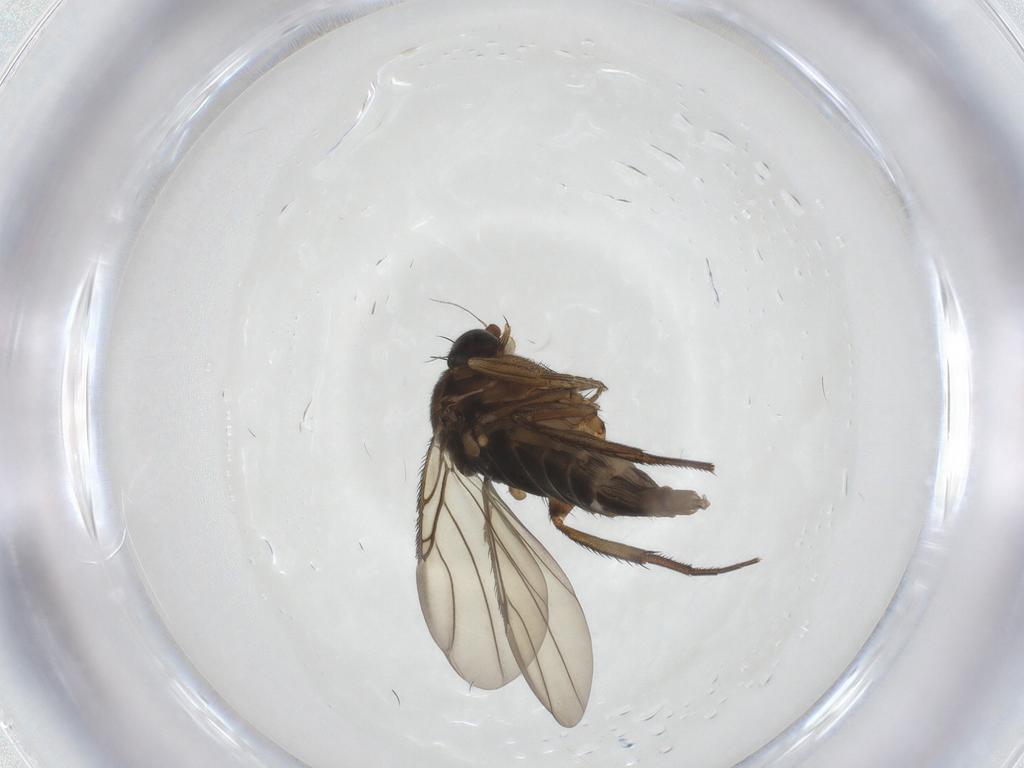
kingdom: Animalia
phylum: Arthropoda
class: Insecta
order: Diptera
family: Phoridae
